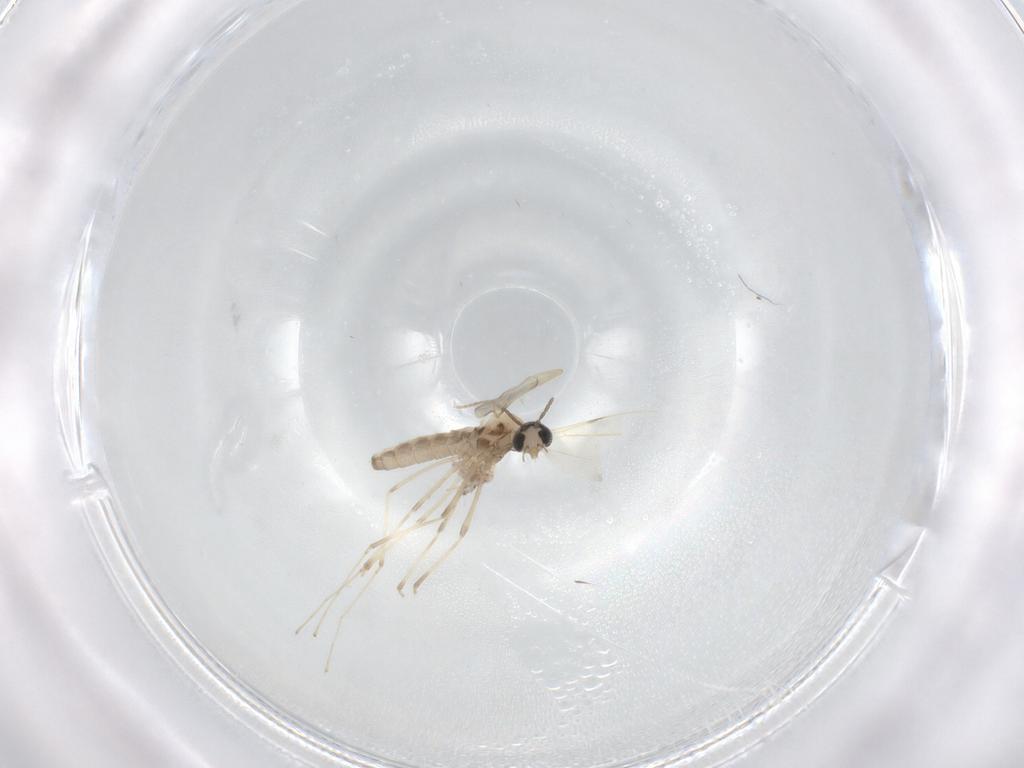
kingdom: Animalia
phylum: Arthropoda
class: Insecta
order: Diptera
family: Cecidomyiidae
